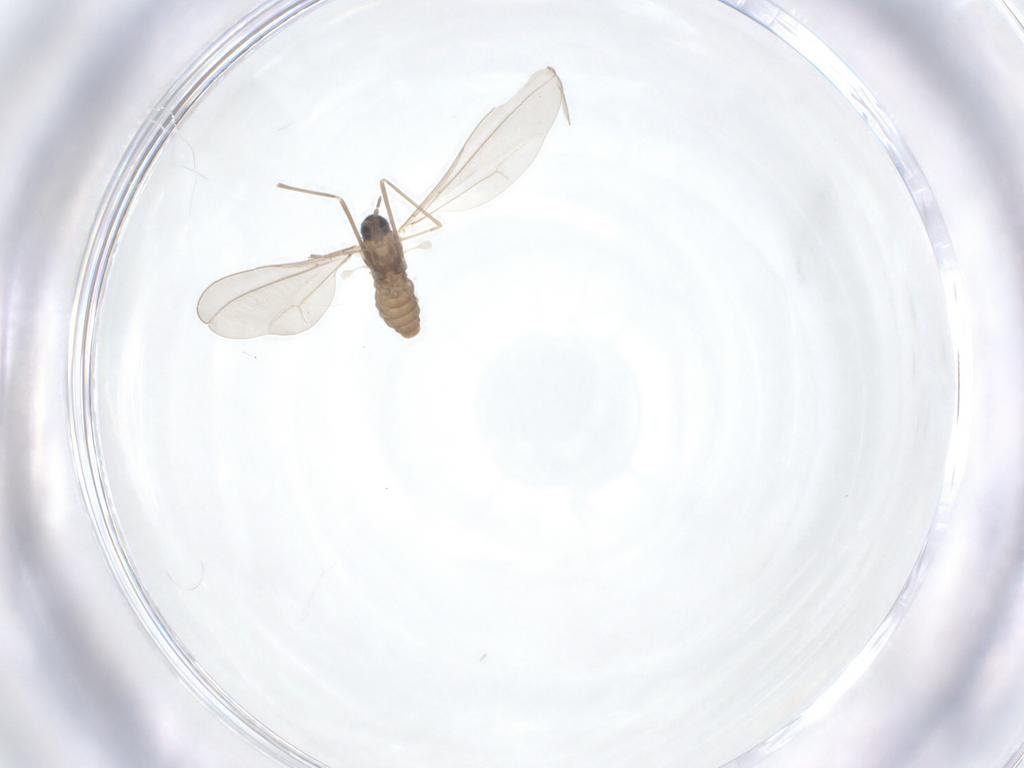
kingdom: Animalia
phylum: Arthropoda
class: Insecta
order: Diptera
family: Cecidomyiidae
